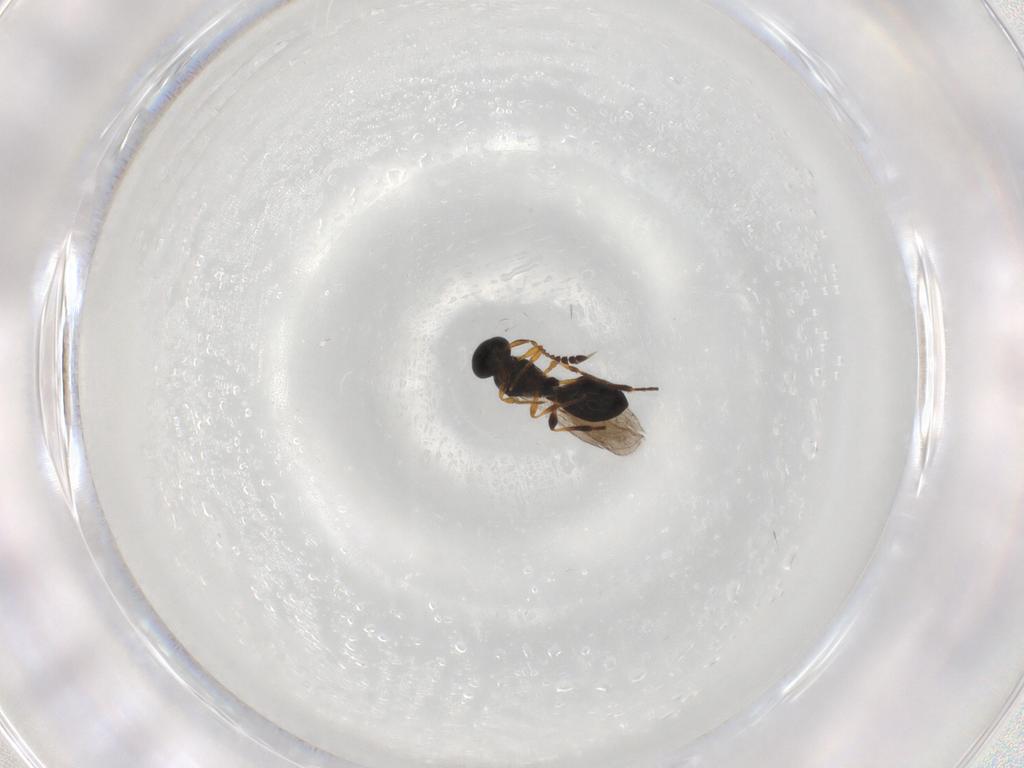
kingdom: Animalia
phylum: Arthropoda
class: Insecta
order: Hymenoptera
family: Platygastridae
